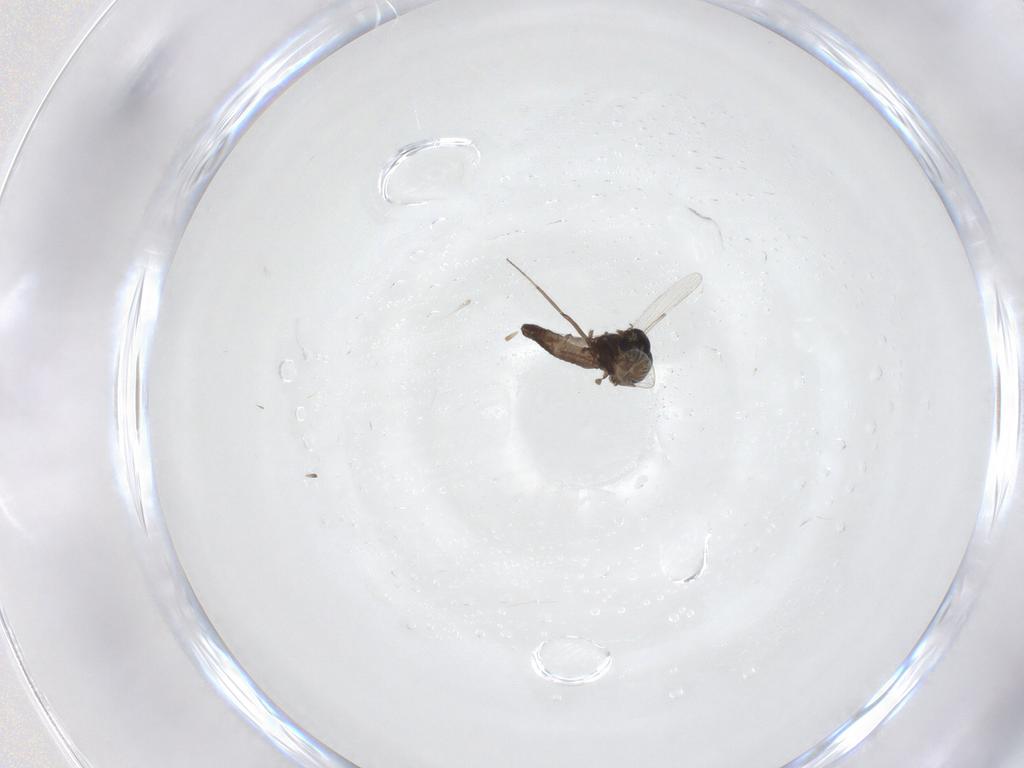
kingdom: Animalia
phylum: Arthropoda
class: Insecta
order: Diptera
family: Ceratopogonidae
